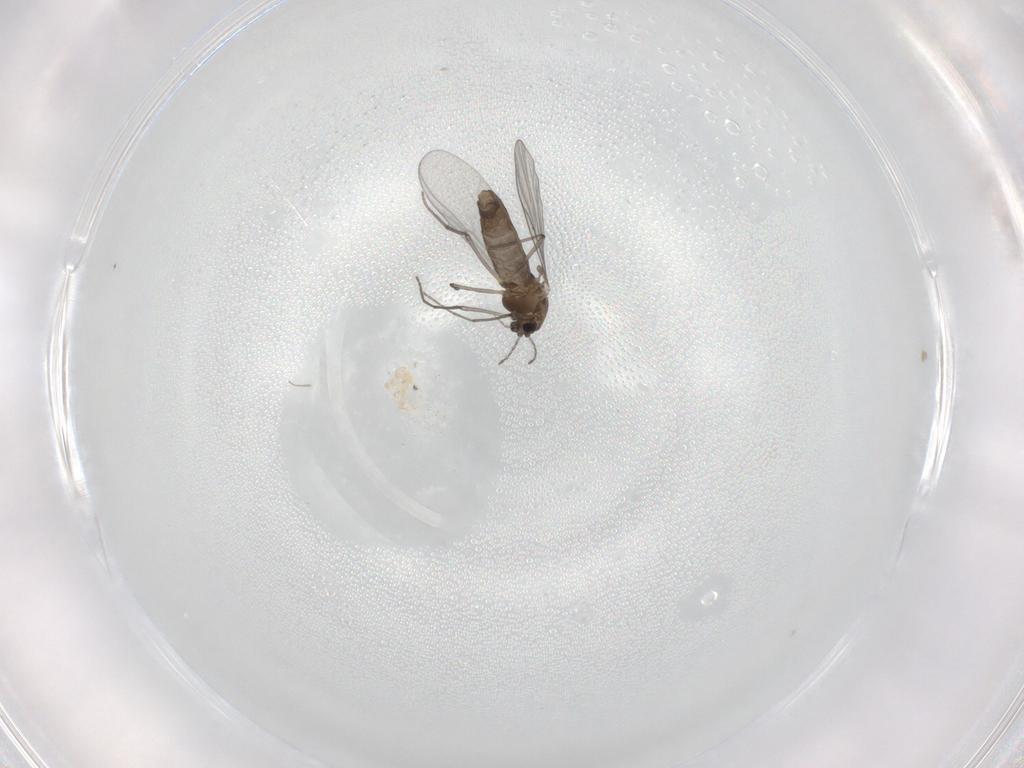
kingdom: Animalia
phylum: Arthropoda
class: Insecta
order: Diptera
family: Chironomidae
